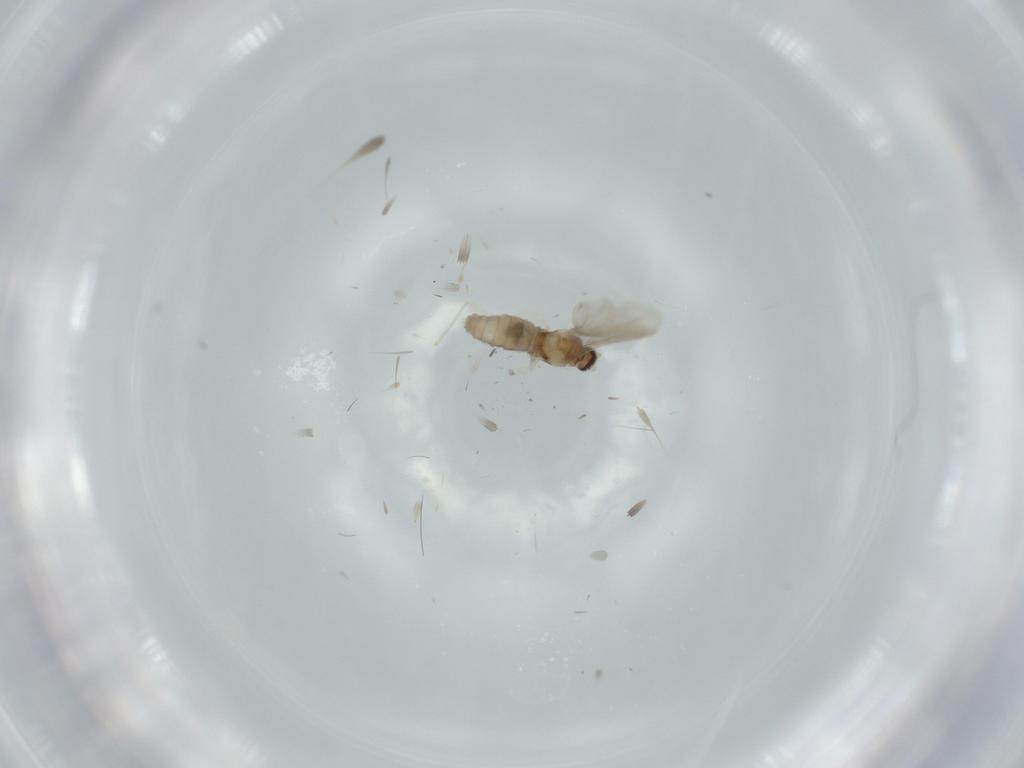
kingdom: Animalia
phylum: Arthropoda
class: Insecta
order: Diptera
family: Cecidomyiidae
